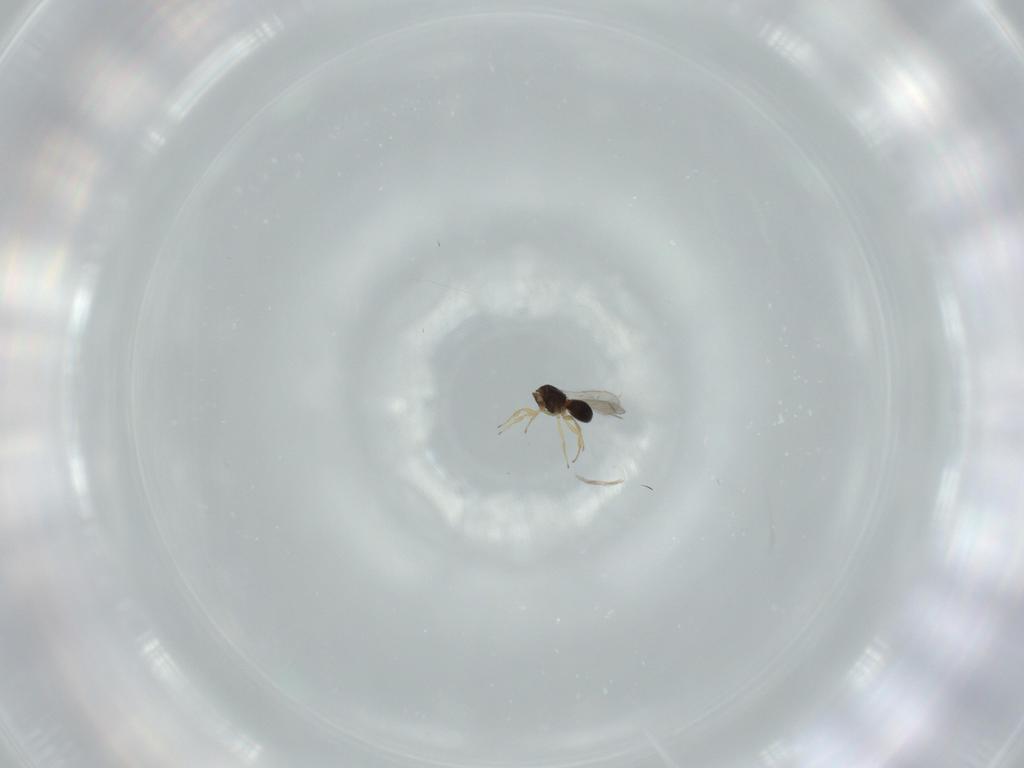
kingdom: Animalia
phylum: Arthropoda
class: Insecta
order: Hymenoptera
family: Scelionidae
